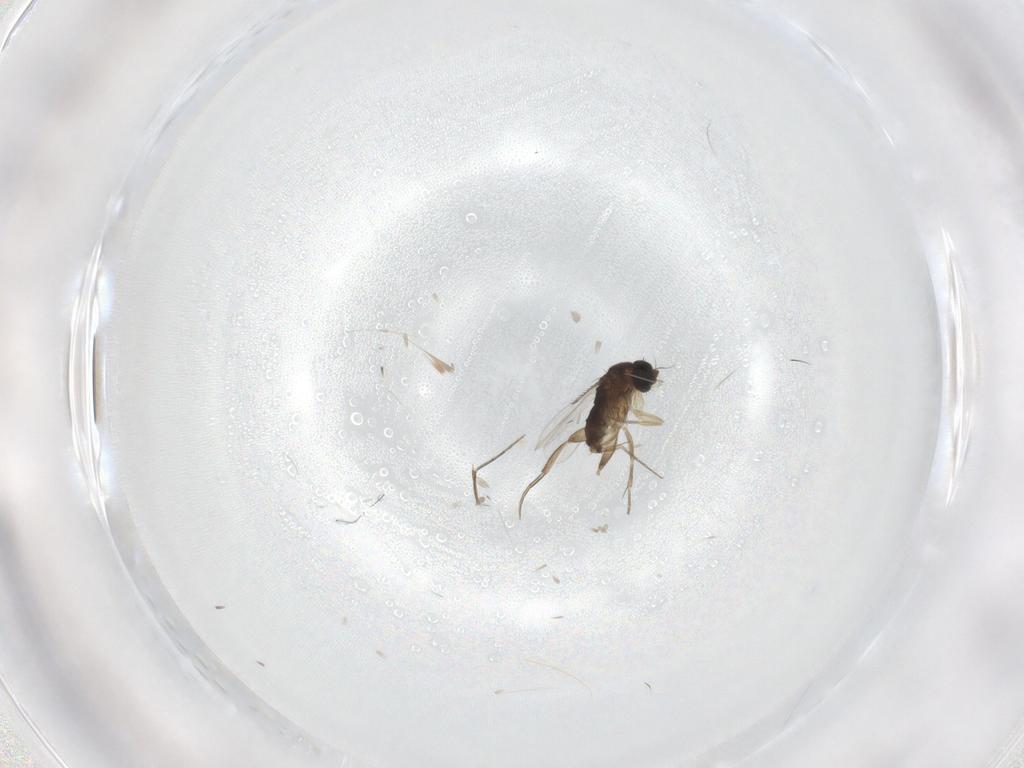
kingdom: Animalia
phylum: Arthropoda
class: Insecta
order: Diptera
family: Phoridae
